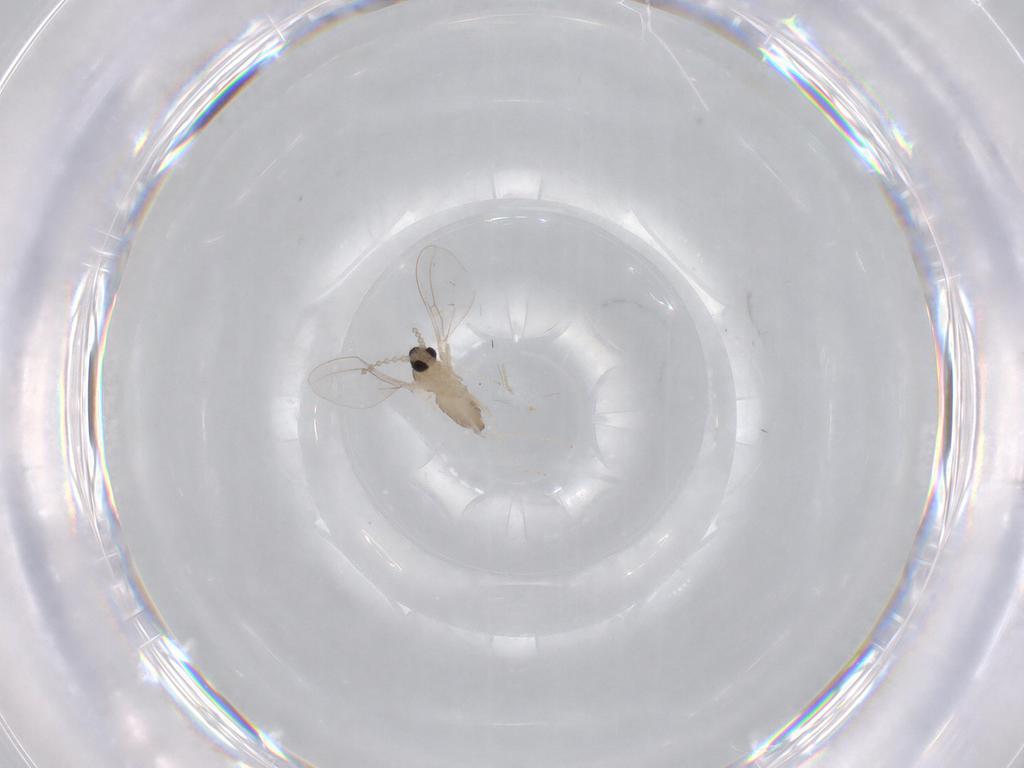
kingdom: Animalia
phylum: Arthropoda
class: Insecta
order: Diptera
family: Cecidomyiidae
